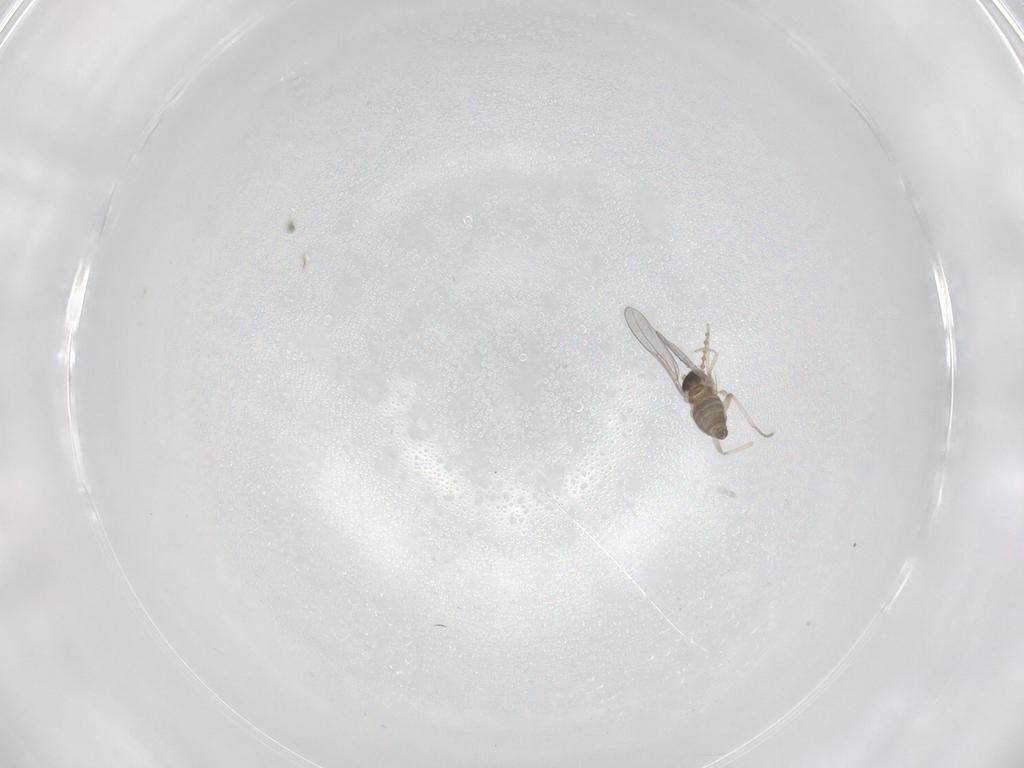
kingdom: Animalia
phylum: Arthropoda
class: Insecta
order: Diptera
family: Cecidomyiidae
